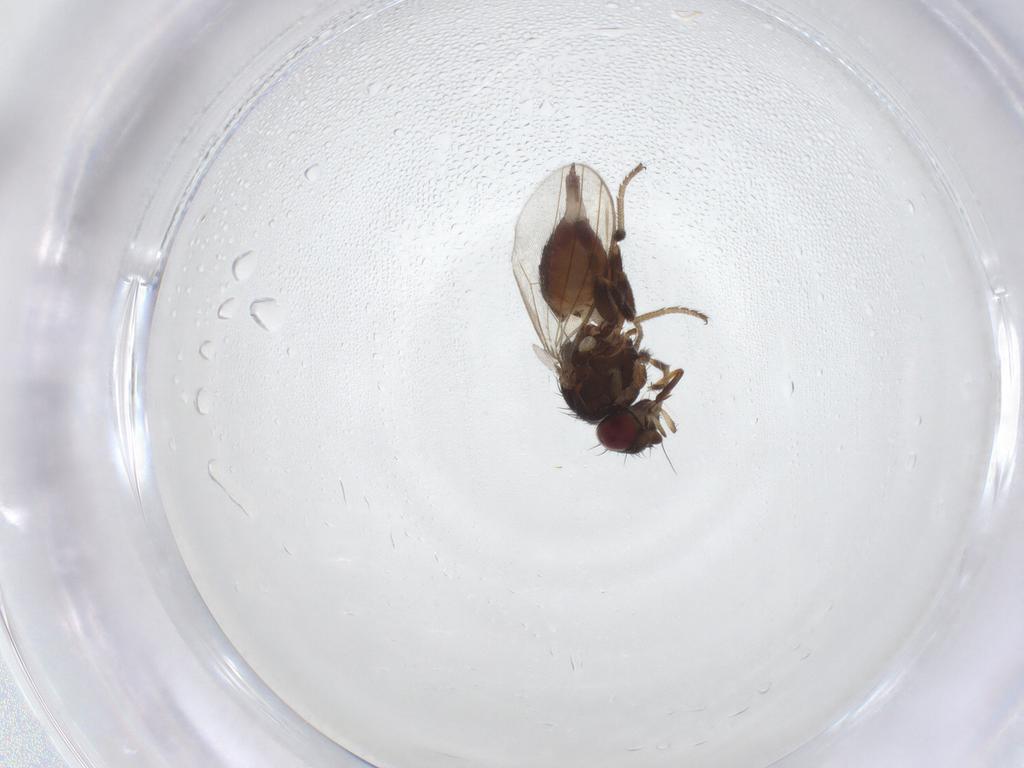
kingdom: Animalia
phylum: Arthropoda
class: Insecta
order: Diptera
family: Milichiidae
